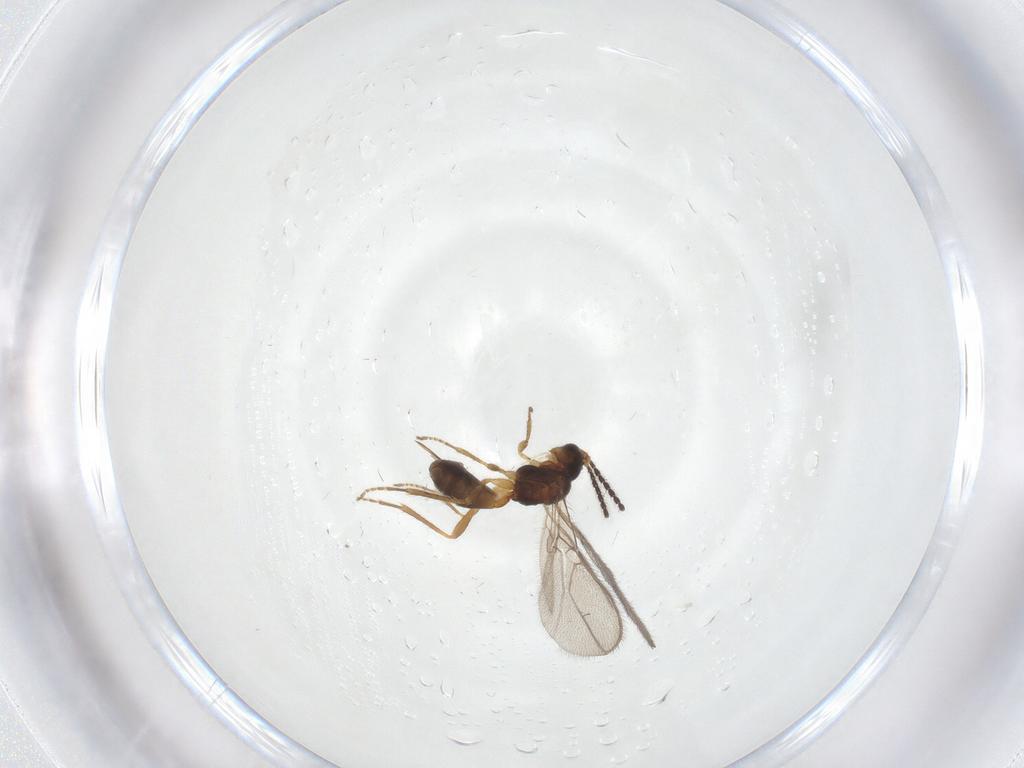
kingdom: Animalia
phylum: Arthropoda
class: Insecta
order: Hymenoptera
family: Braconidae
